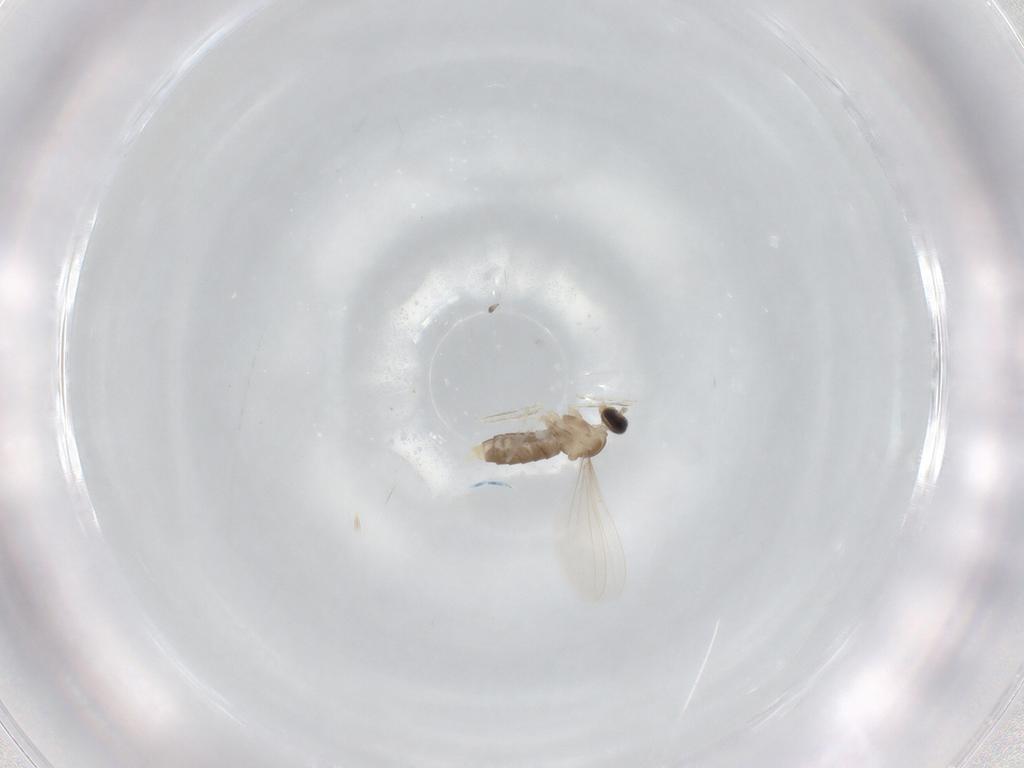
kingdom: Animalia
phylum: Arthropoda
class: Insecta
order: Diptera
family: Cecidomyiidae
